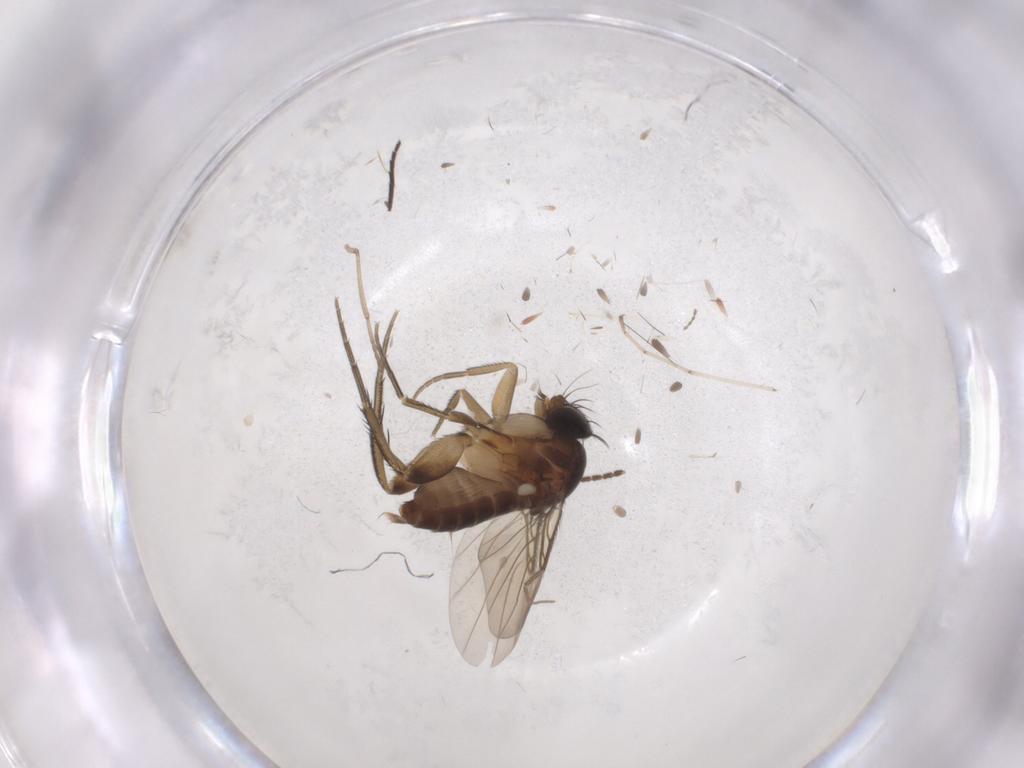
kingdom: Animalia
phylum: Arthropoda
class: Insecta
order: Diptera
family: Phoridae
